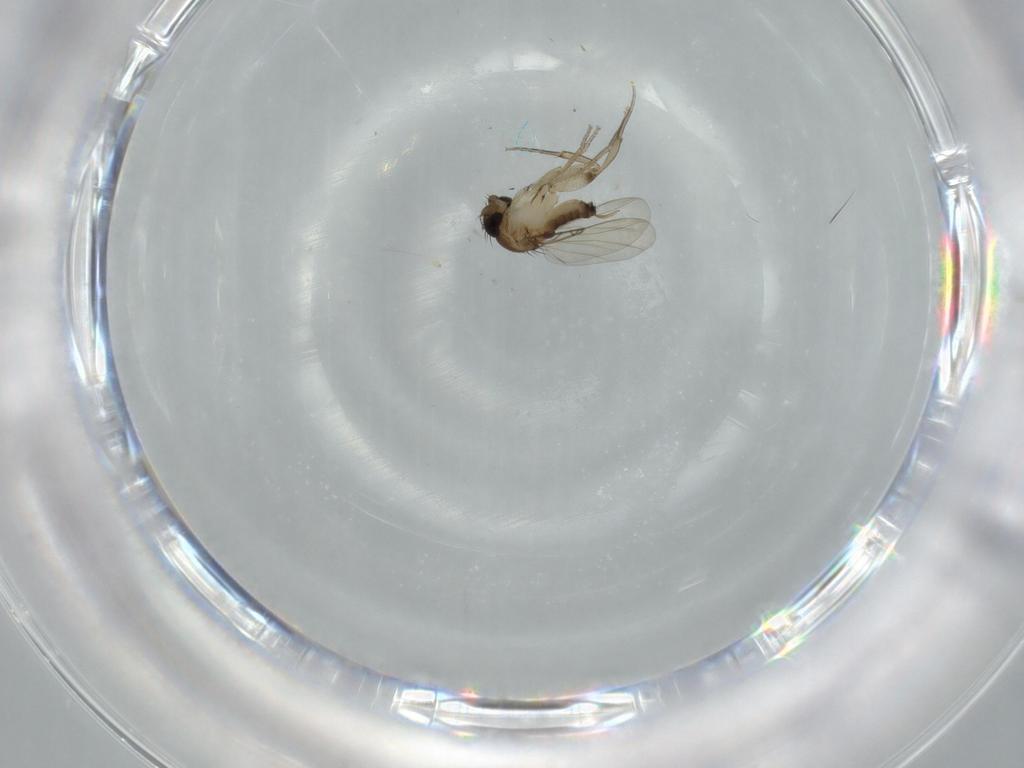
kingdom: Animalia
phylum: Arthropoda
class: Insecta
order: Diptera
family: Phoridae
